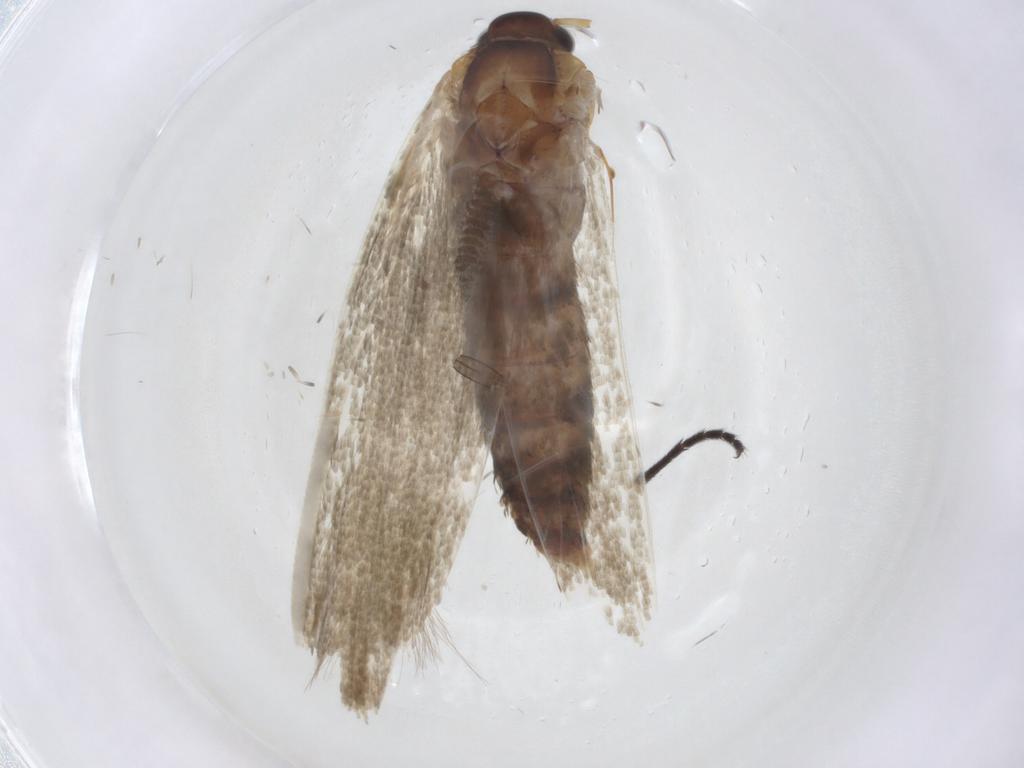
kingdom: Animalia
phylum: Arthropoda
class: Insecta
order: Lepidoptera
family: Blastobasidae
